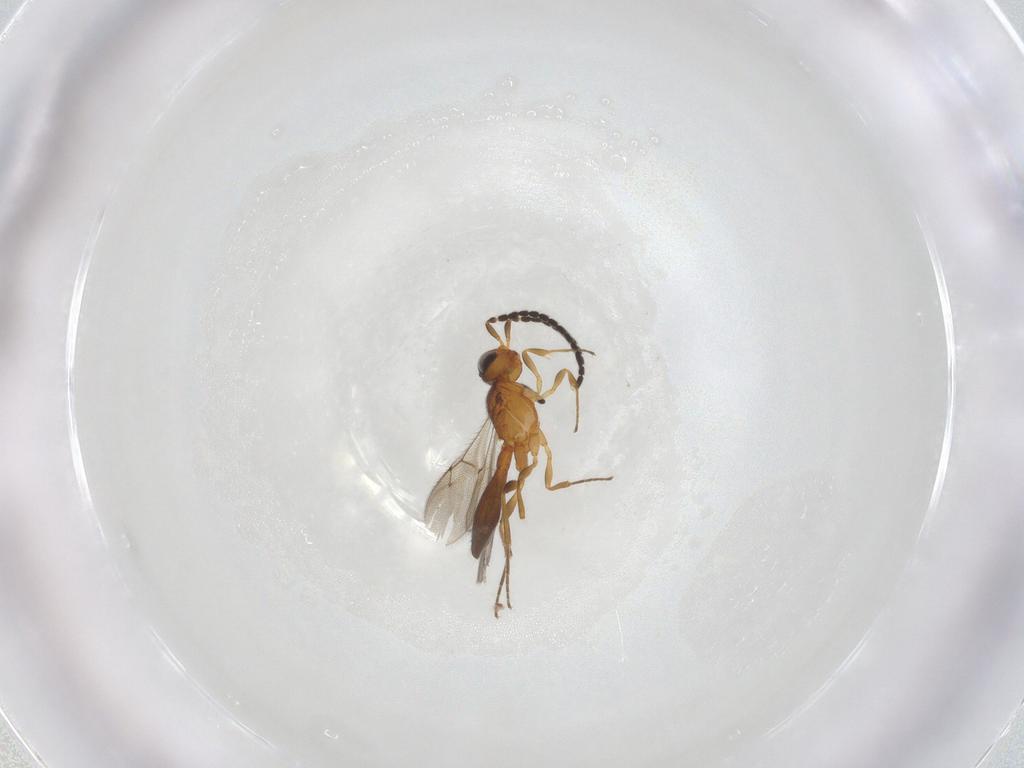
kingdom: Animalia
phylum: Arthropoda
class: Insecta
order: Hymenoptera
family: Scelionidae
